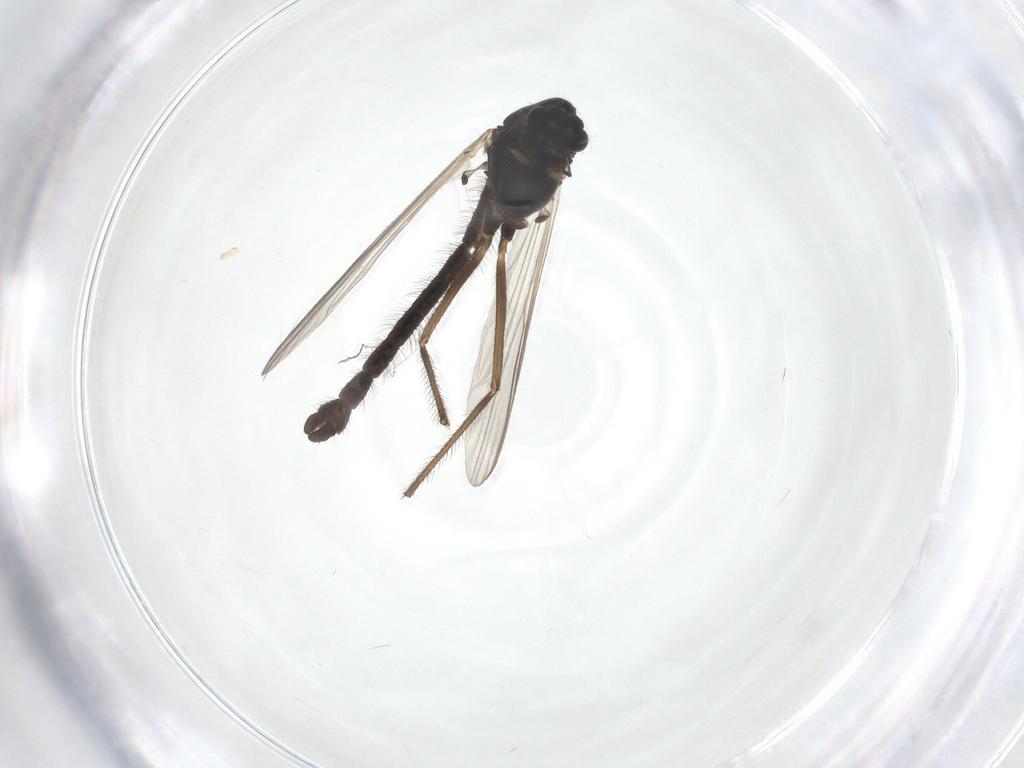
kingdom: Animalia
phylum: Arthropoda
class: Insecta
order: Diptera
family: Chironomidae
